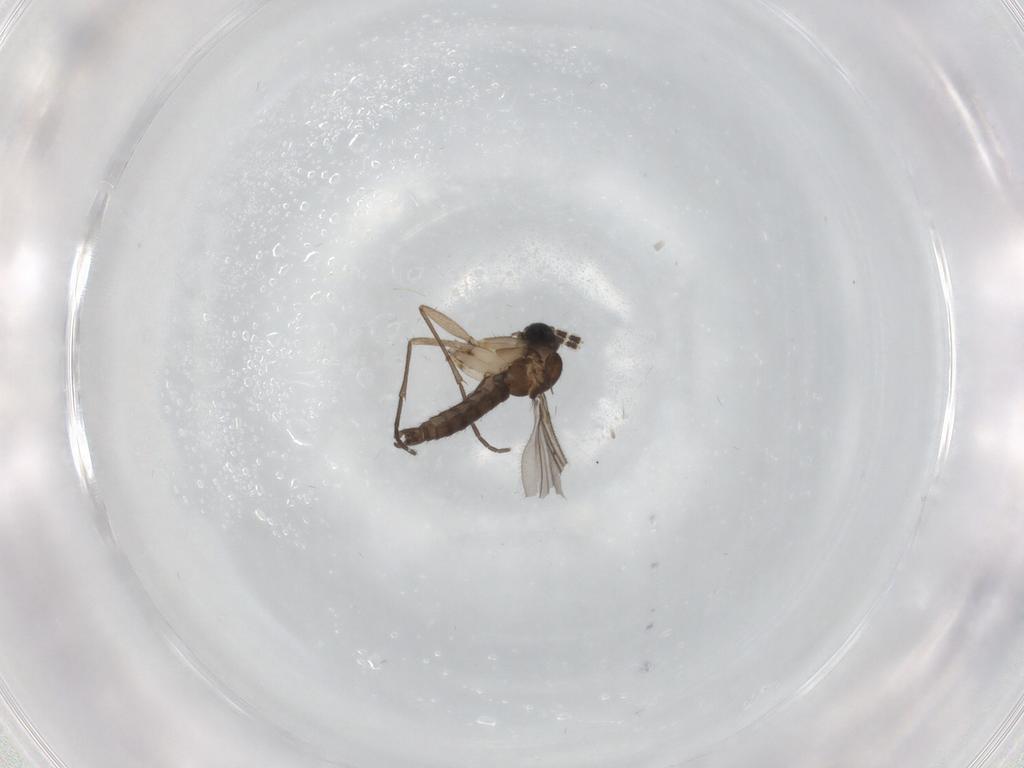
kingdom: Animalia
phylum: Arthropoda
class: Insecta
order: Diptera
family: Sciaridae
